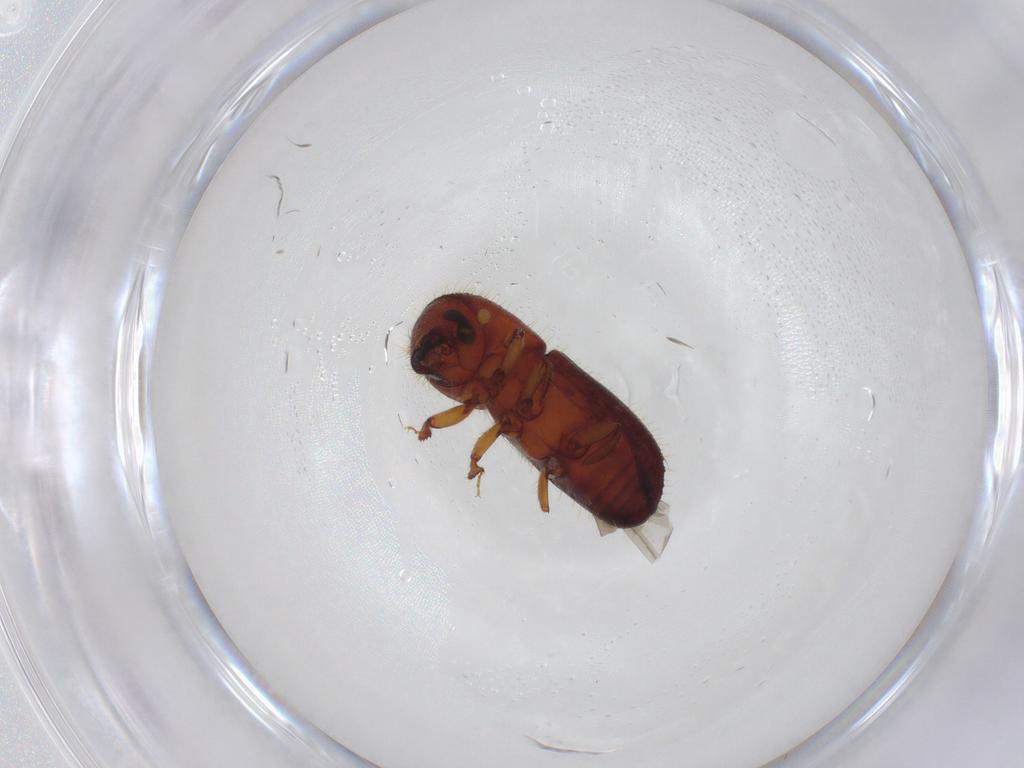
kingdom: Animalia
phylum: Arthropoda
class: Insecta
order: Coleoptera
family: Curculionidae
